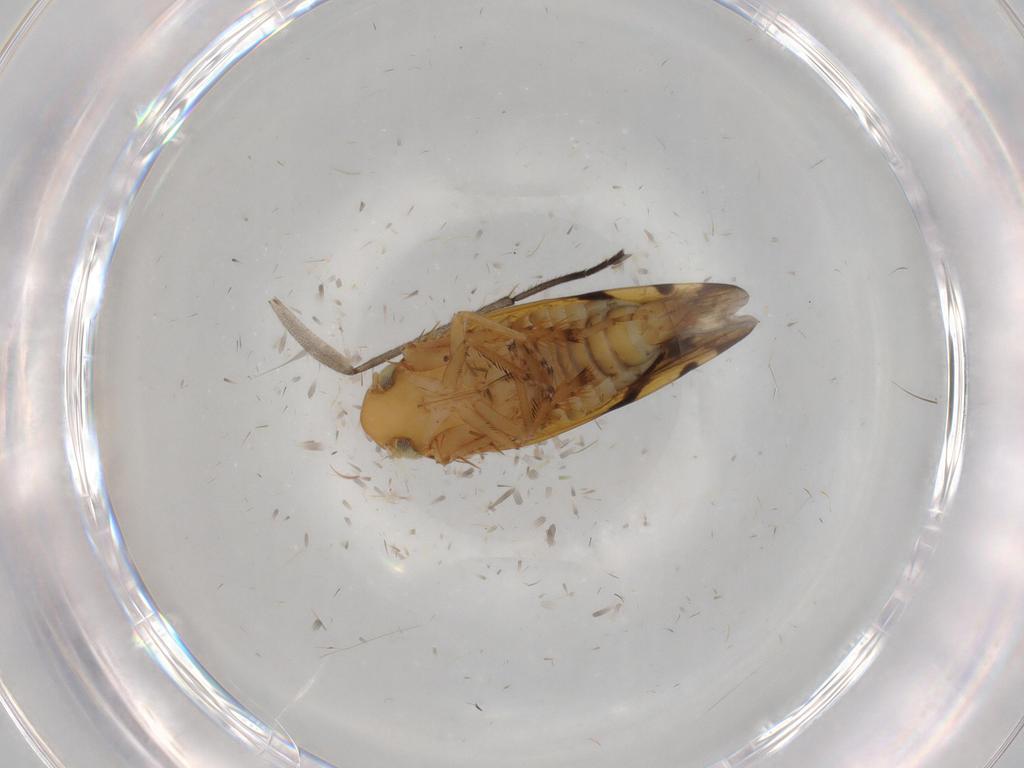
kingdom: Animalia
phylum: Arthropoda
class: Insecta
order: Hemiptera
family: Cicadellidae
